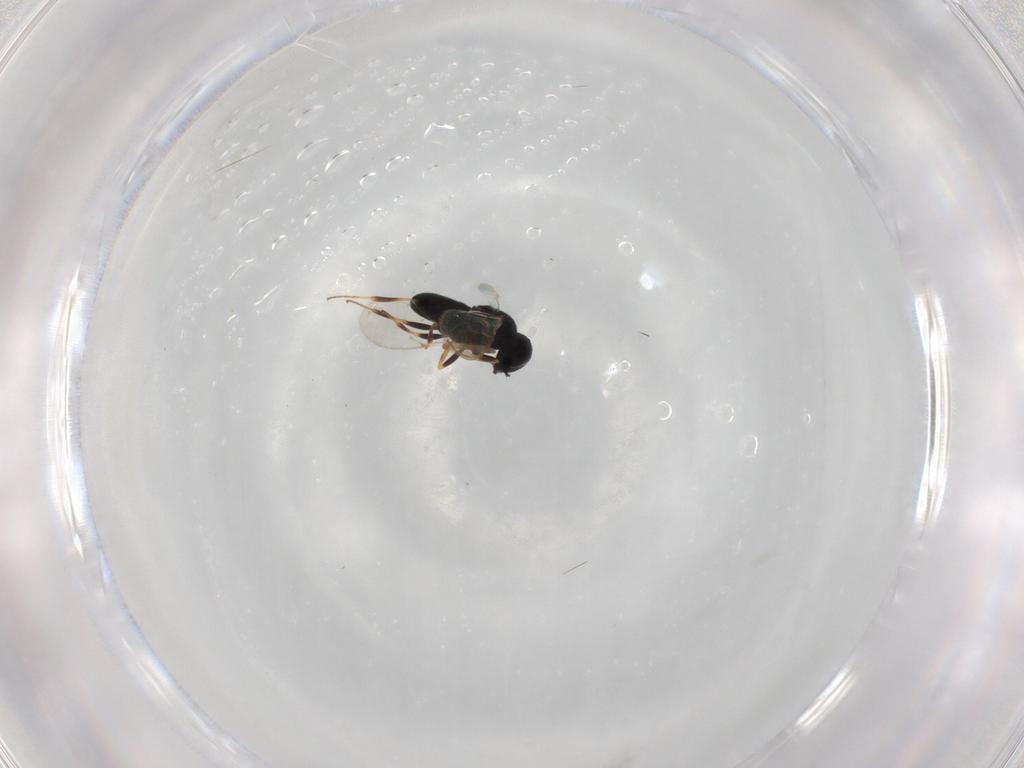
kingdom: Animalia
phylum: Arthropoda
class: Insecta
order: Hymenoptera
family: Scelionidae
